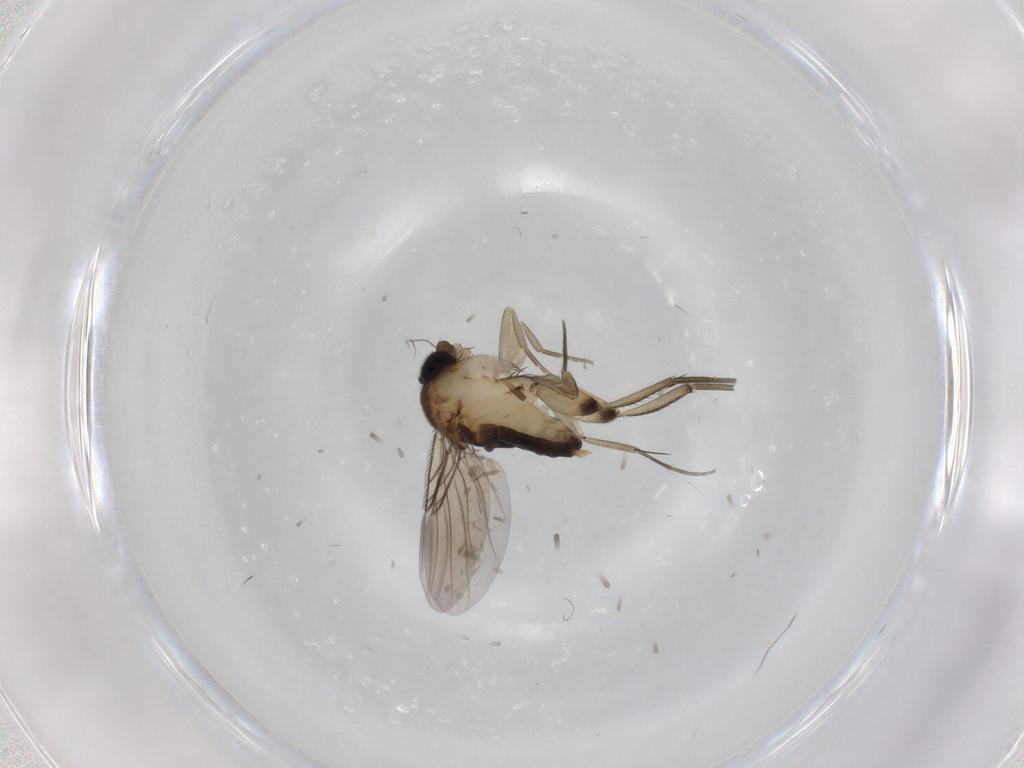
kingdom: Animalia
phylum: Arthropoda
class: Insecta
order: Diptera
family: Phoridae
